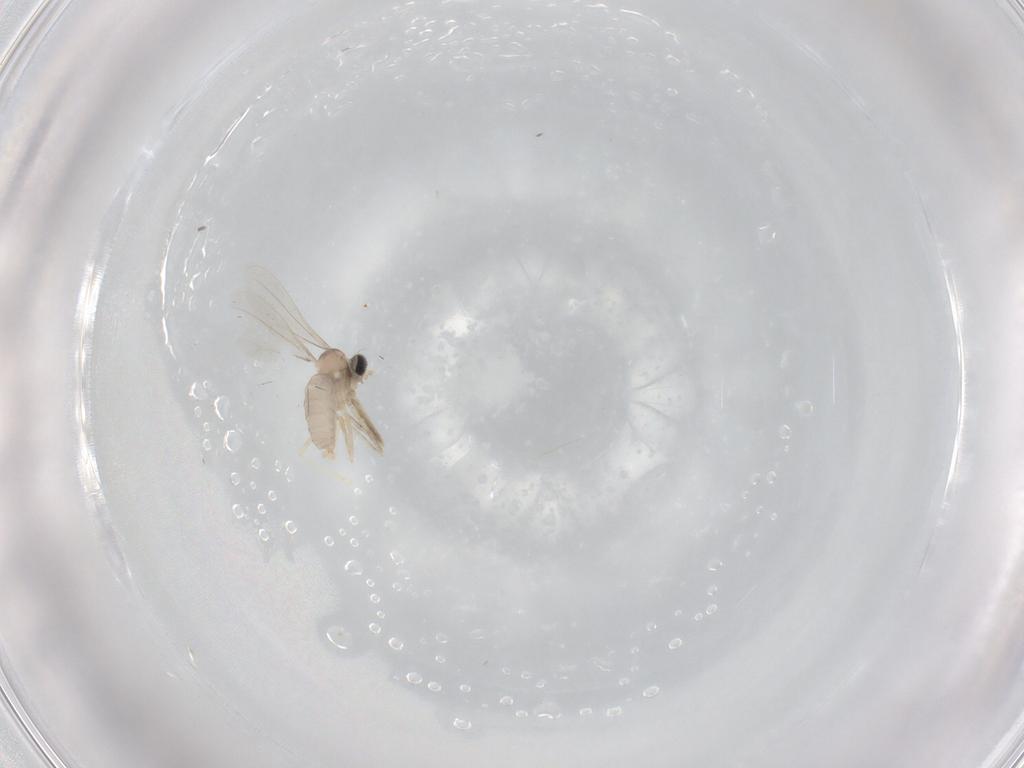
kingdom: Animalia
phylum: Arthropoda
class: Insecta
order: Diptera
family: Cecidomyiidae
